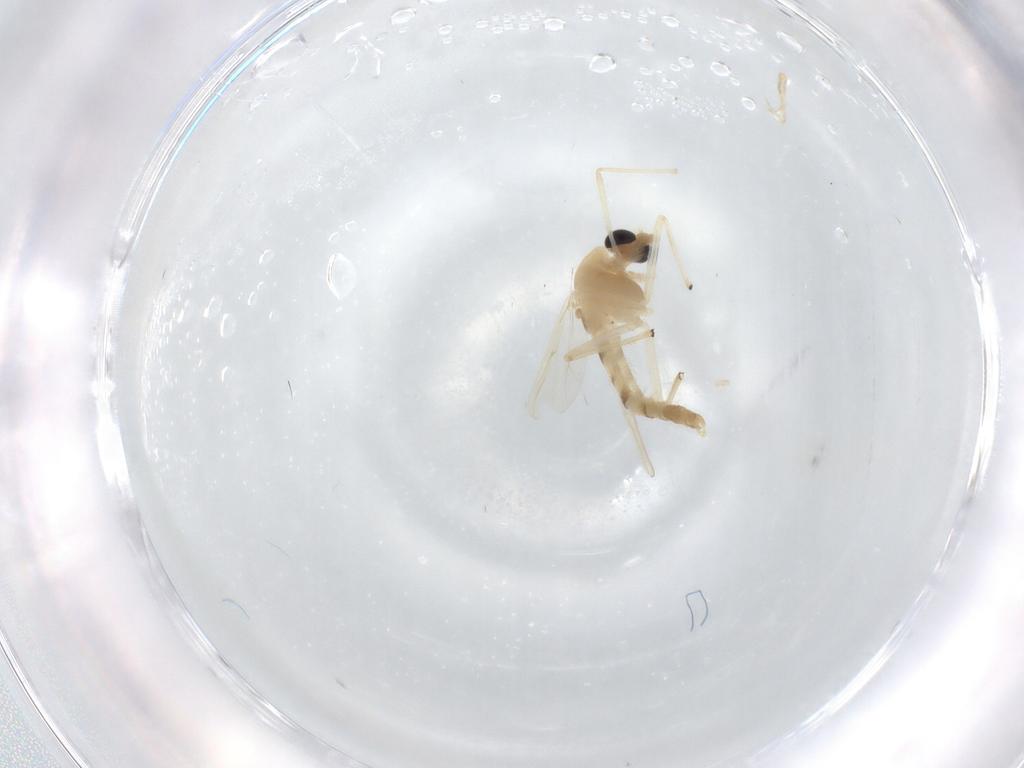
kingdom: Animalia
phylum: Arthropoda
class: Insecta
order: Diptera
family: Chironomidae
